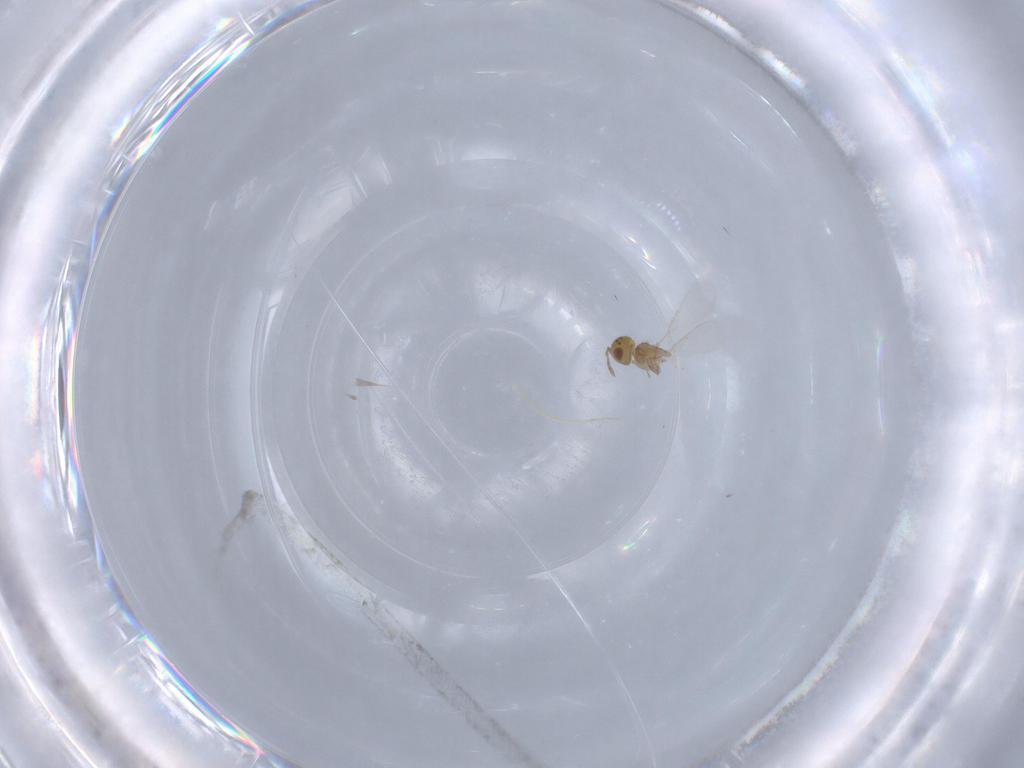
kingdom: Animalia
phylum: Arthropoda
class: Insecta
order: Hymenoptera
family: Aphelinidae
